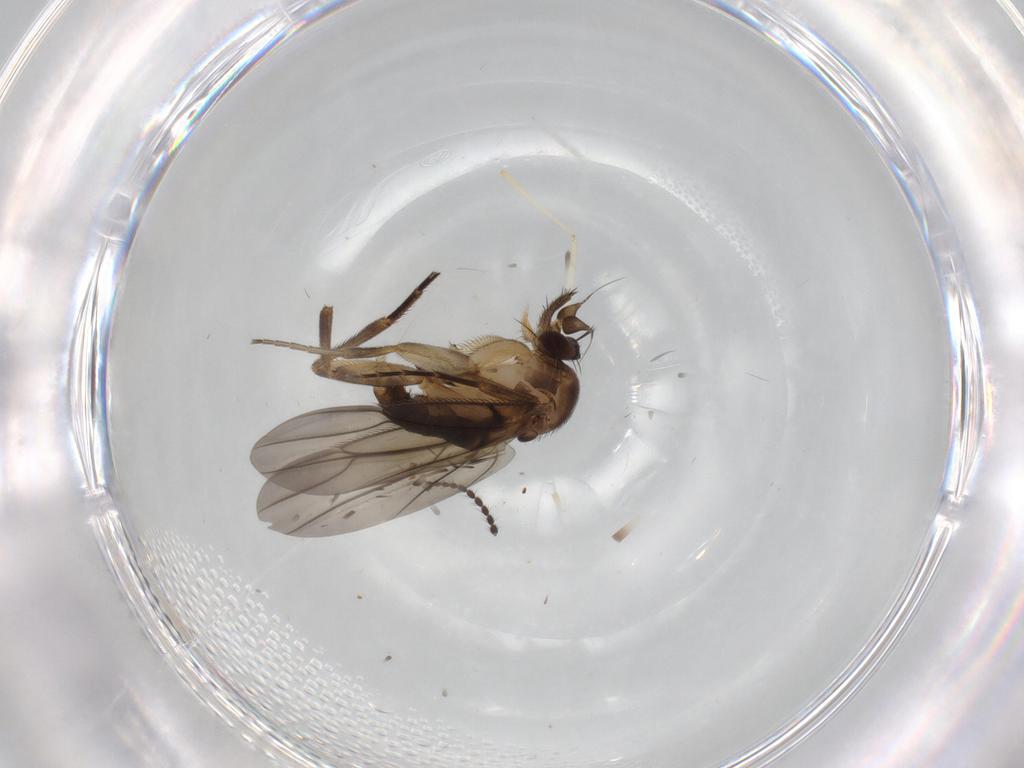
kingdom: Animalia
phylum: Arthropoda
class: Insecta
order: Diptera
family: Limoniidae
